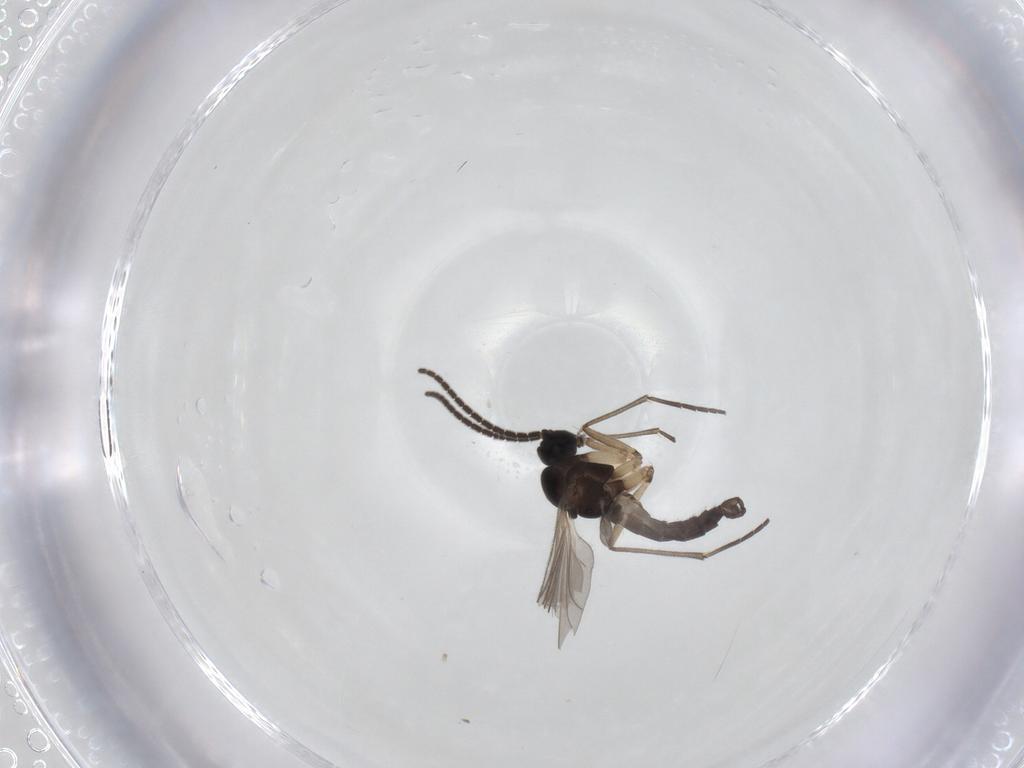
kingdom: Animalia
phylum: Arthropoda
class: Insecta
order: Diptera
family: Sciaridae
